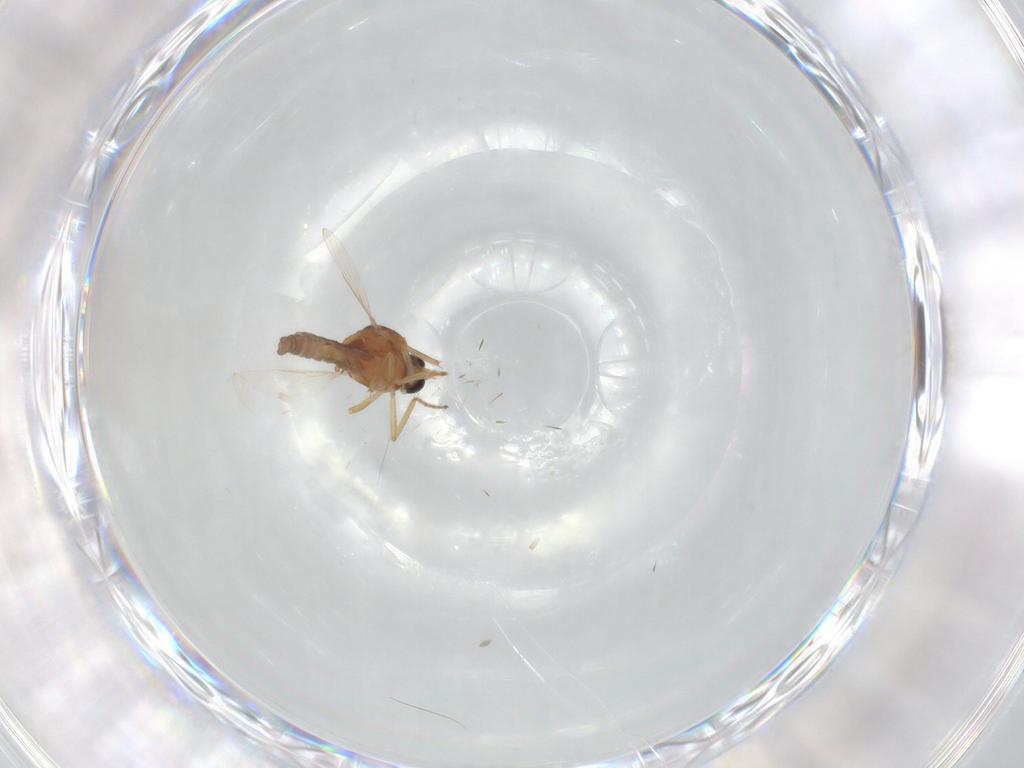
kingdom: Animalia
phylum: Arthropoda
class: Insecta
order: Diptera
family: Ceratopogonidae
